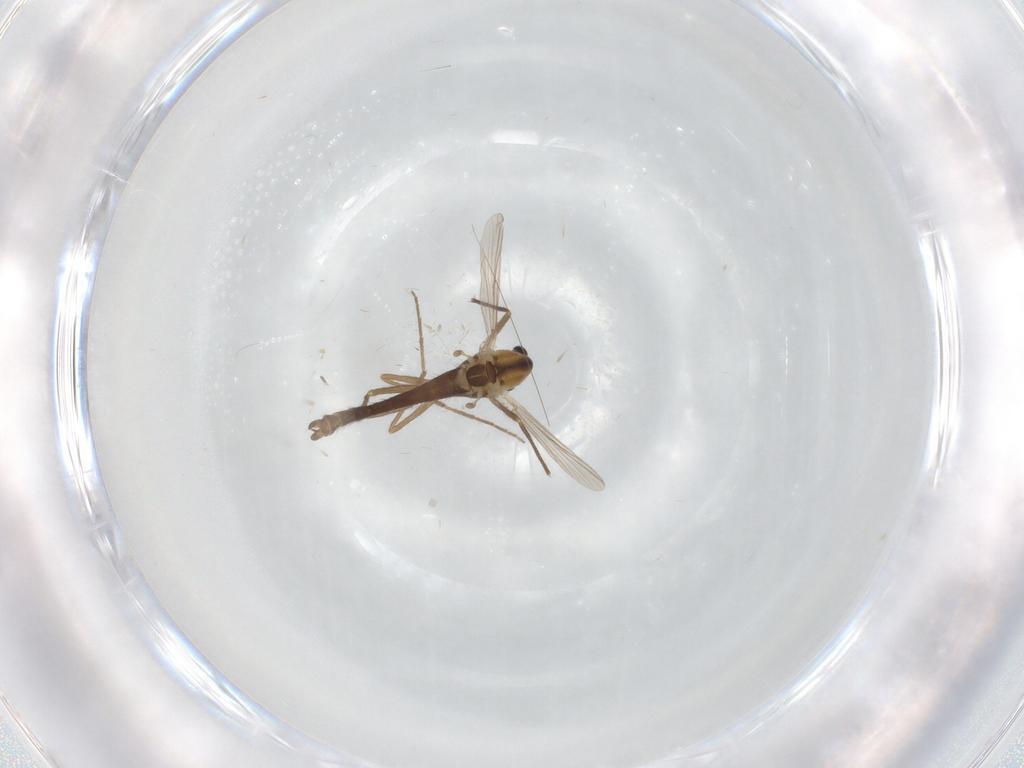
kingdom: Animalia
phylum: Arthropoda
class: Insecta
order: Diptera
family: Chironomidae
